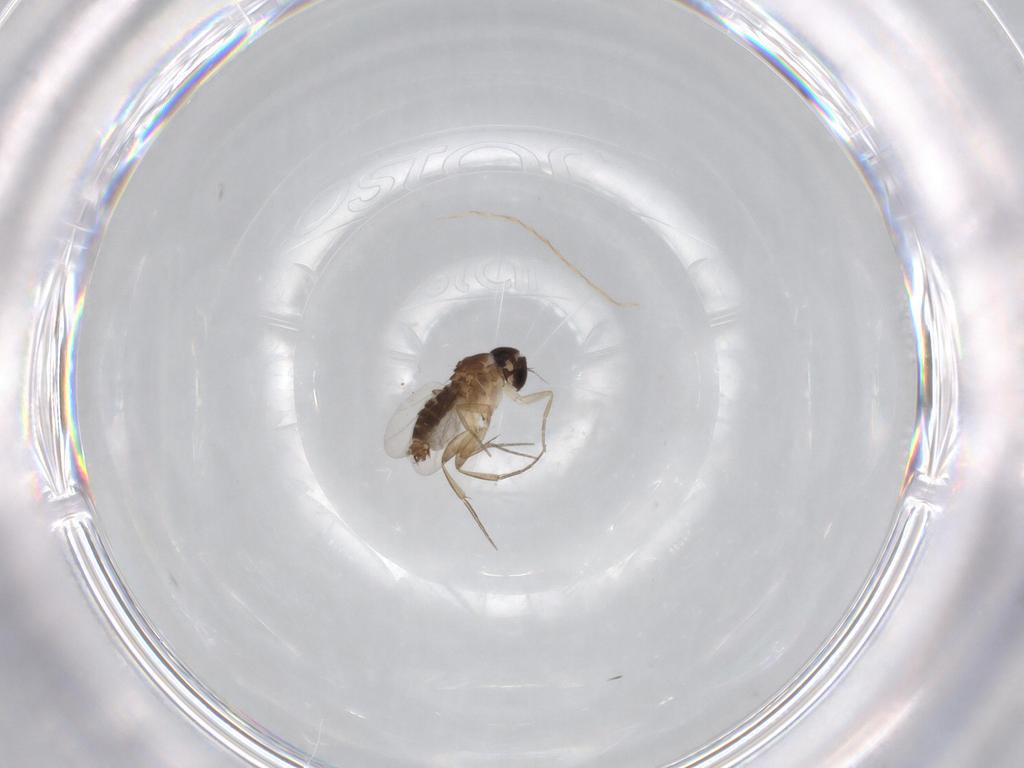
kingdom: Animalia
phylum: Arthropoda
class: Insecta
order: Diptera
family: Phoridae
